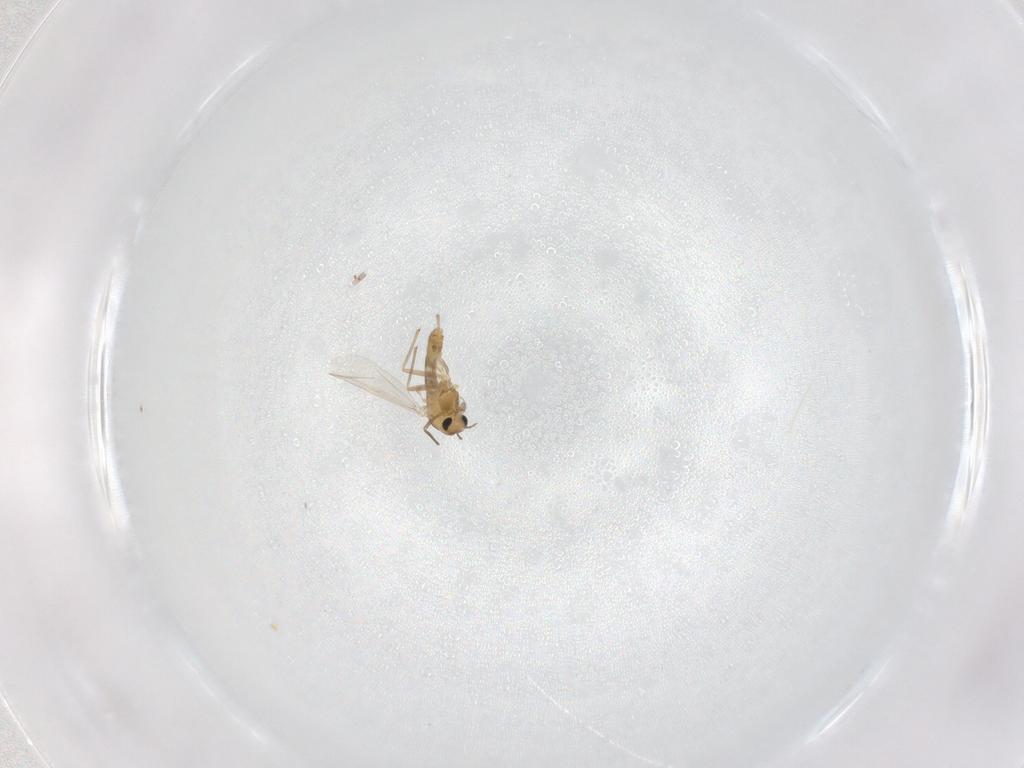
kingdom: Animalia
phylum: Arthropoda
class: Insecta
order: Diptera
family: Chironomidae
